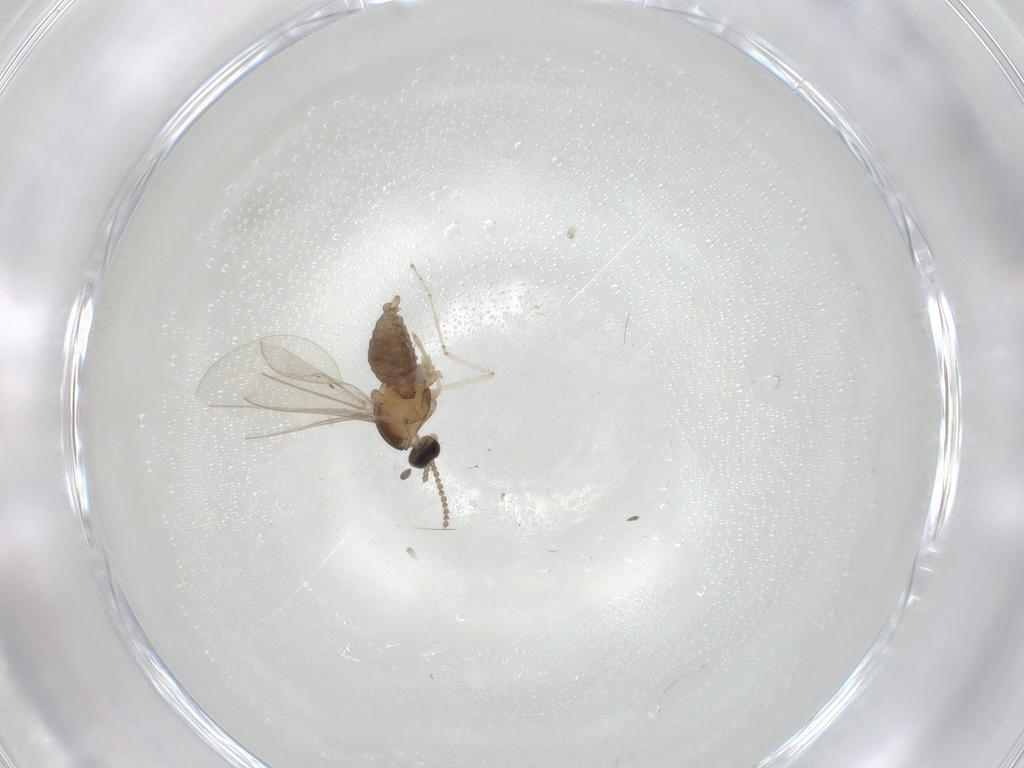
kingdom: Animalia
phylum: Arthropoda
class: Insecta
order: Diptera
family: Cecidomyiidae
